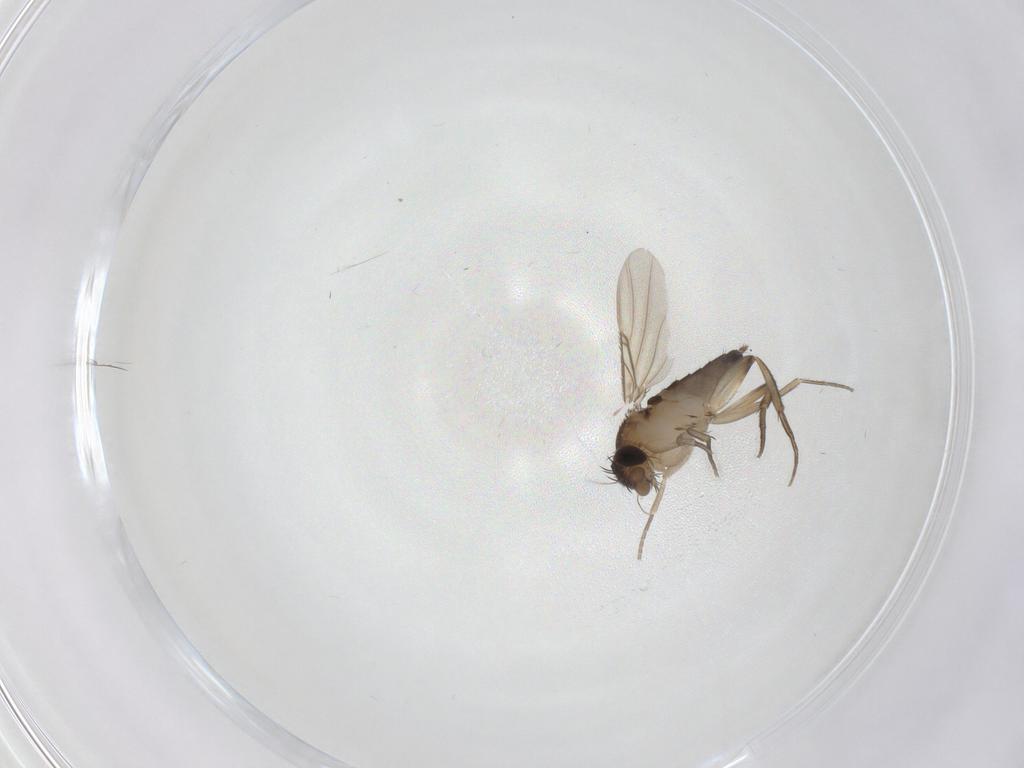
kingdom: Animalia
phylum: Arthropoda
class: Insecta
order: Diptera
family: Phoridae
